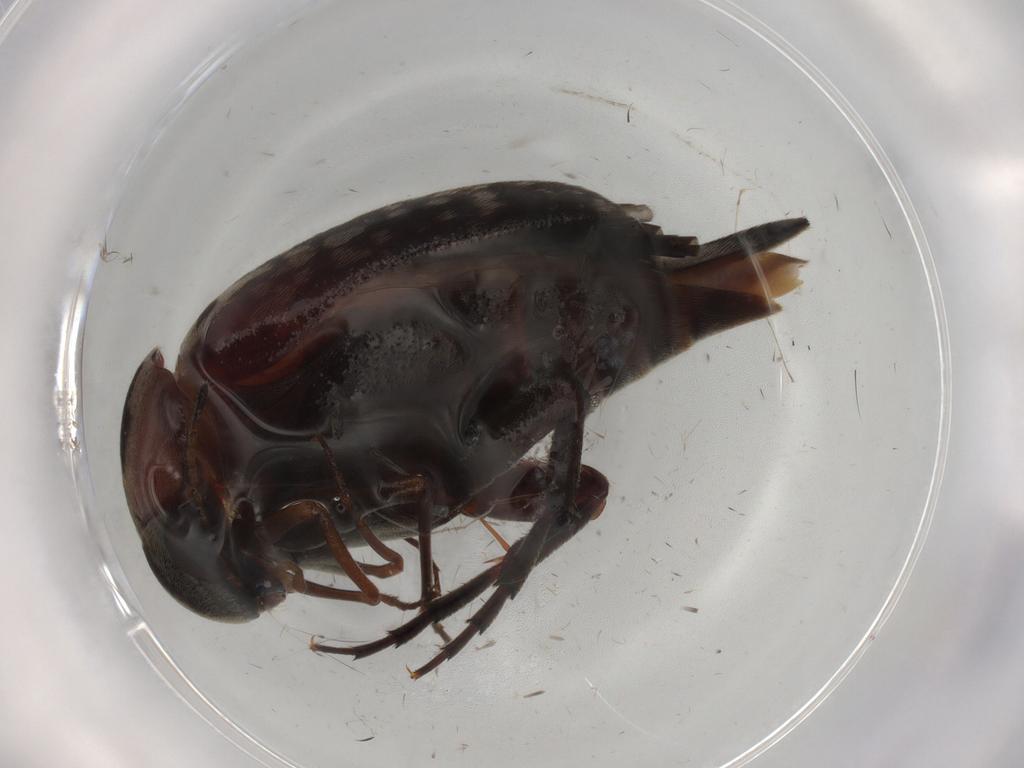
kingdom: Animalia
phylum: Arthropoda
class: Insecta
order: Coleoptera
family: Mordellidae
